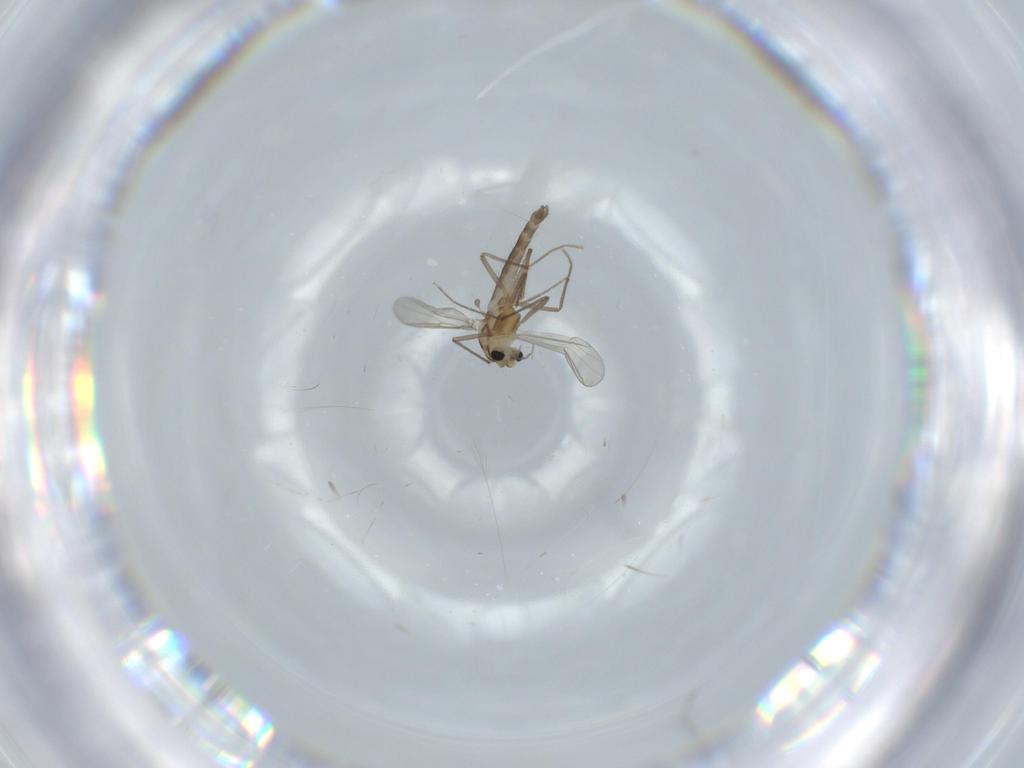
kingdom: Animalia
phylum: Arthropoda
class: Insecta
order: Diptera
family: Chironomidae
